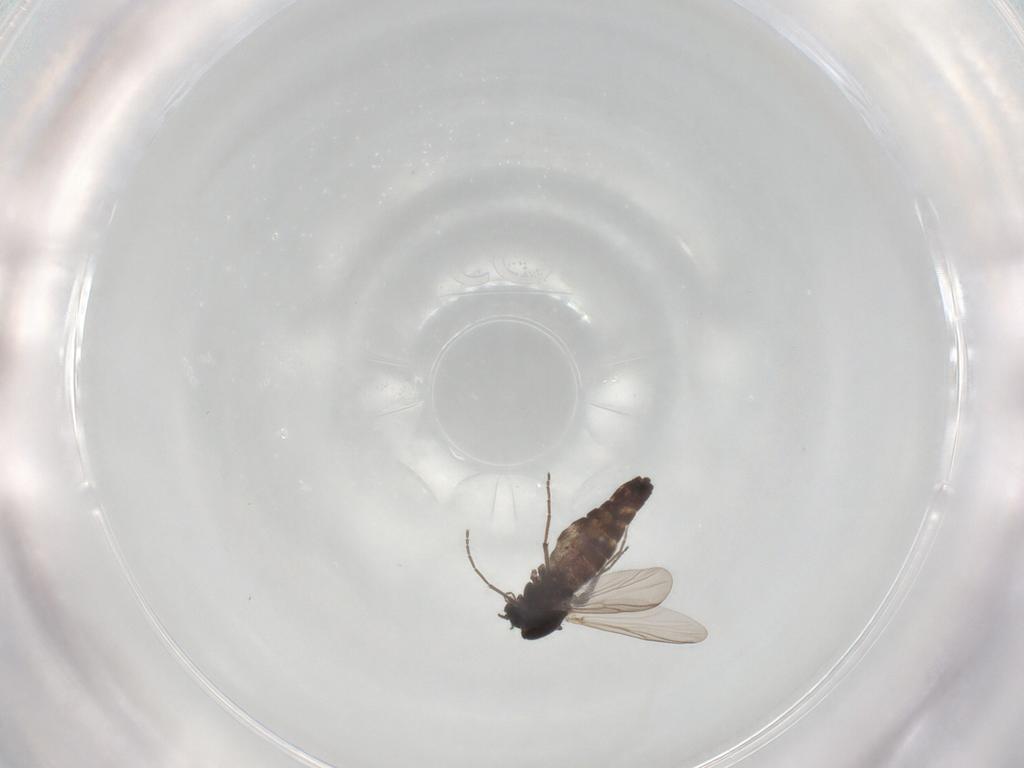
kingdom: Animalia
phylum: Arthropoda
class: Insecta
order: Diptera
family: Chironomidae
